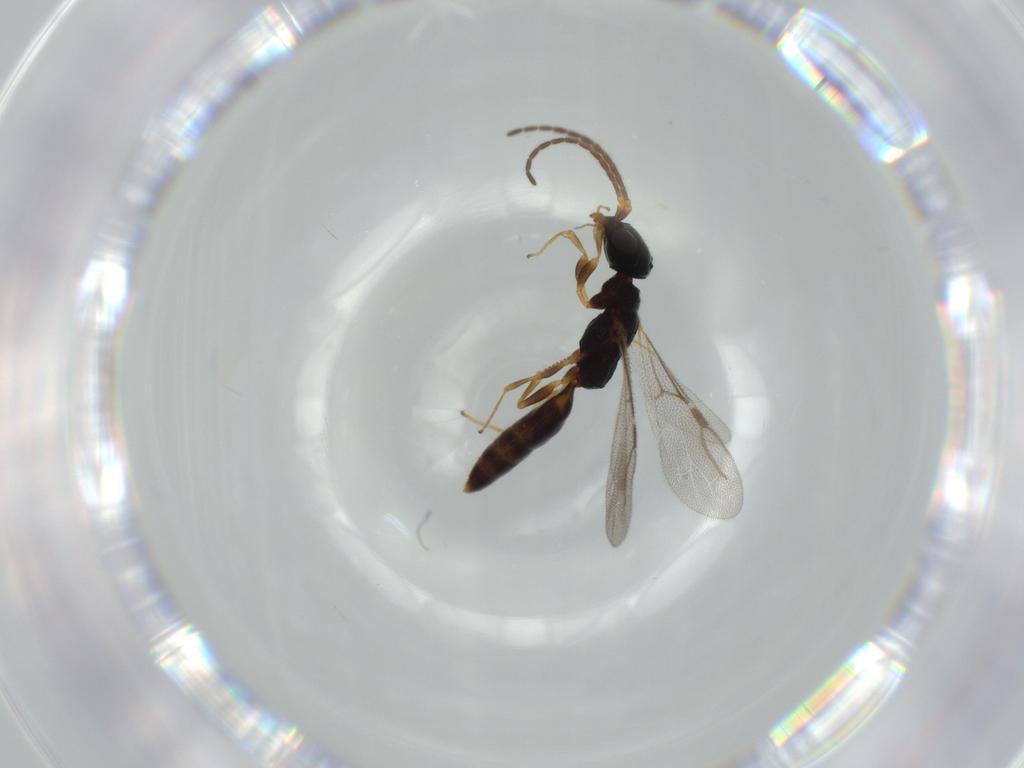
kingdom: Animalia
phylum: Arthropoda
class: Insecta
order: Hymenoptera
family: Bethylidae
